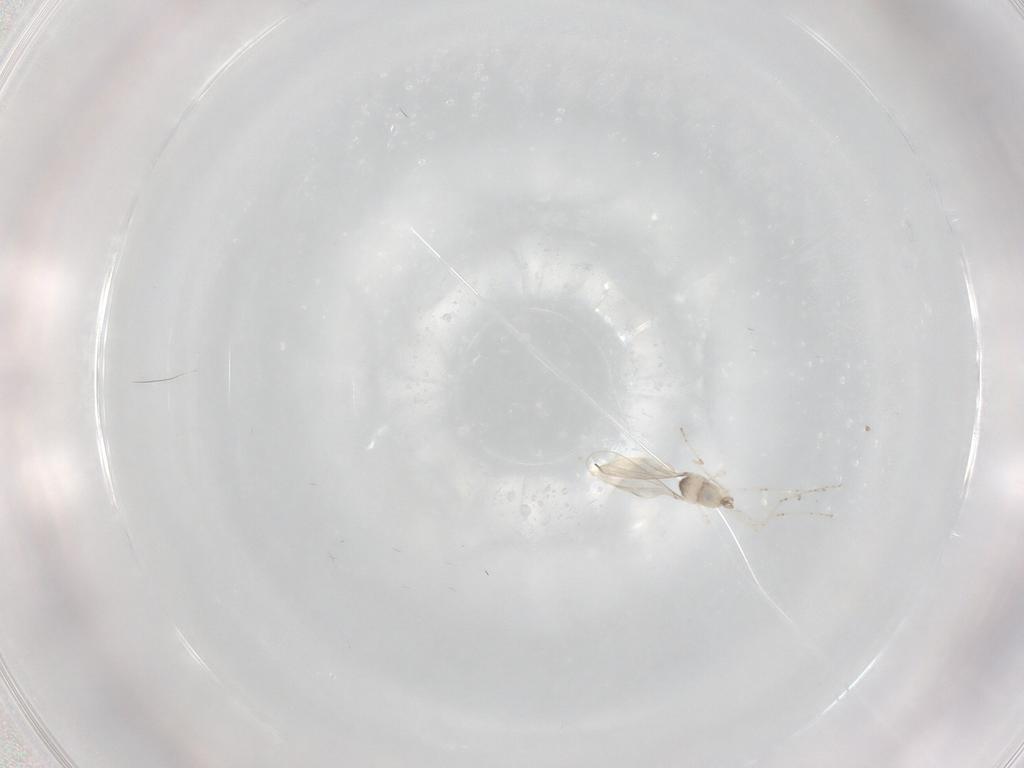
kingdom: Animalia
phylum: Arthropoda
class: Insecta
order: Diptera
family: Cecidomyiidae
